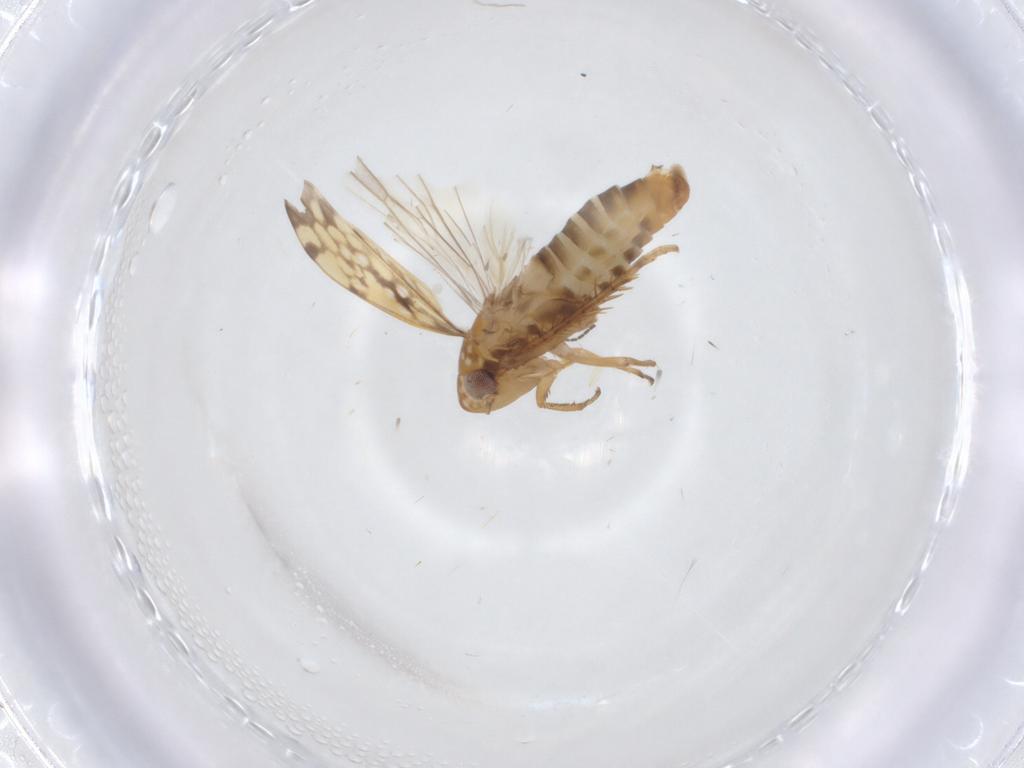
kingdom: Animalia
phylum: Arthropoda
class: Insecta
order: Hemiptera
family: Cicadellidae
